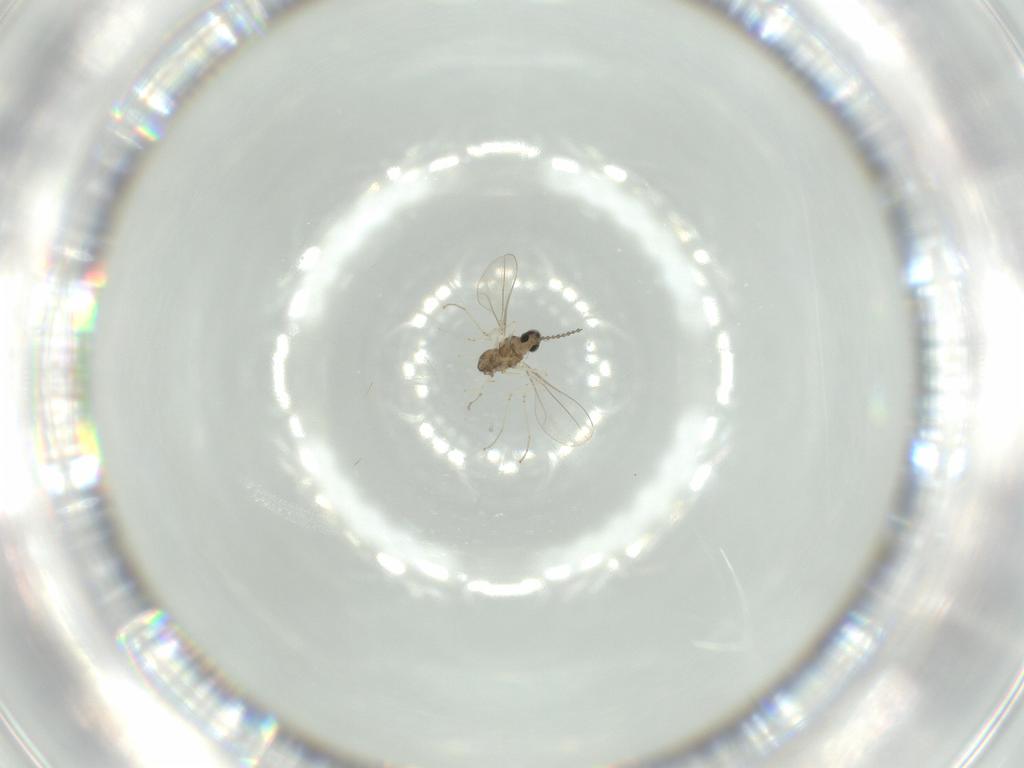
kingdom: Animalia
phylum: Arthropoda
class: Insecta
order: Diptera
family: Cecidomyiidae
